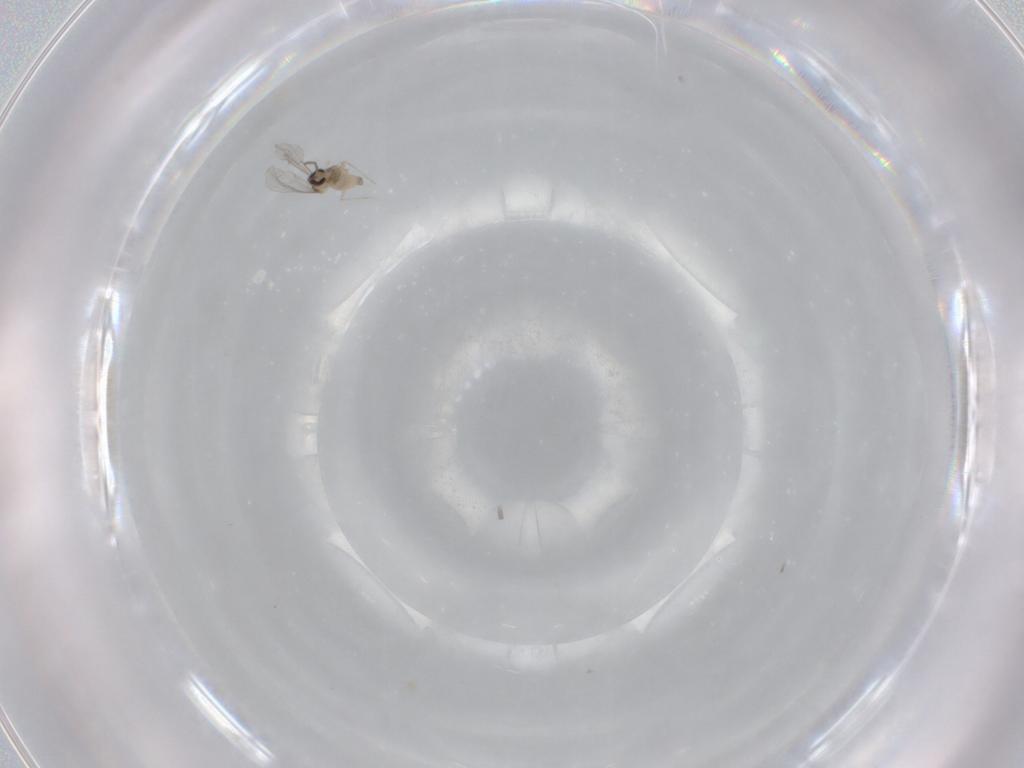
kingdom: Animalia
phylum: Arthropoda
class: Insecta
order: Diptera
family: Cecidomyiidae
